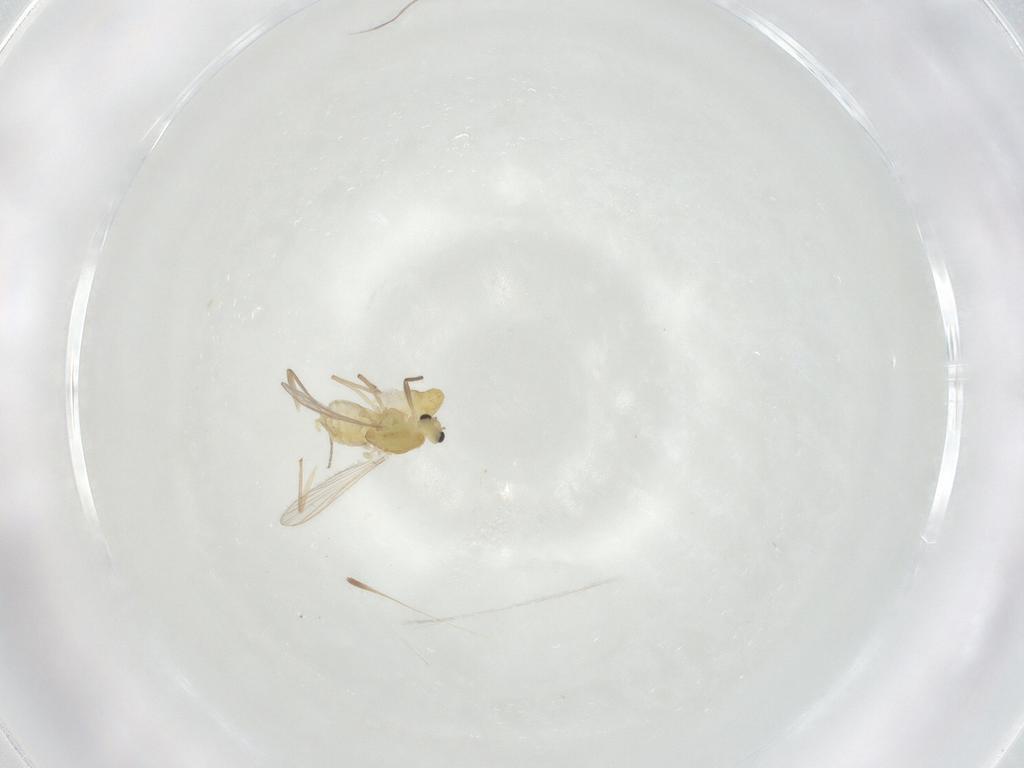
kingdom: Animalia
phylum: Arthropoda
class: Insecta
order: Diptera
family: Chironomidae
